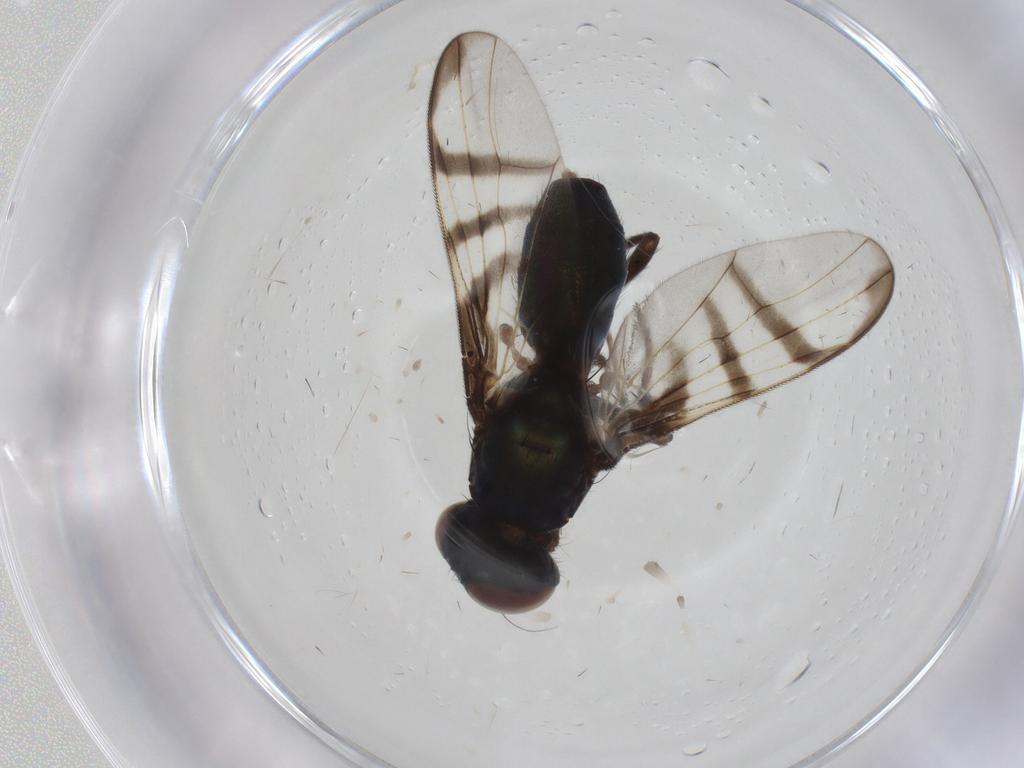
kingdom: Animalia
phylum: Arthropoda
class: Insecta
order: Diptera
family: Platystomatidae
